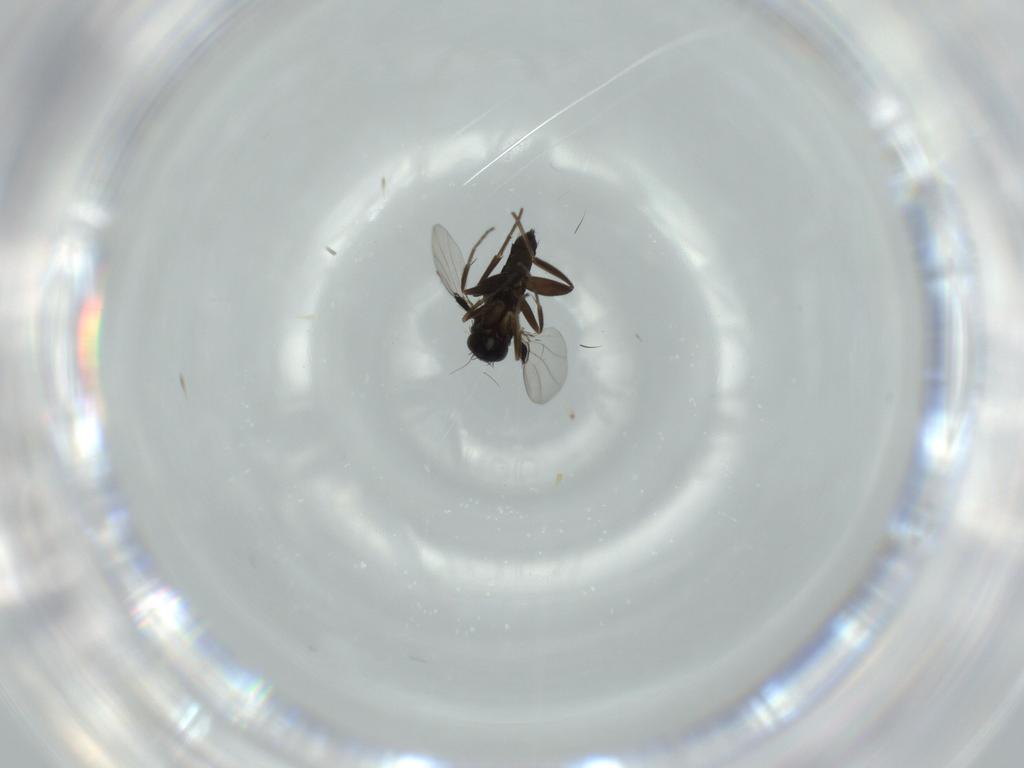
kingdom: Animalia
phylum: Arthropoda
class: Insecta
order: Diptera
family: Phoridae
